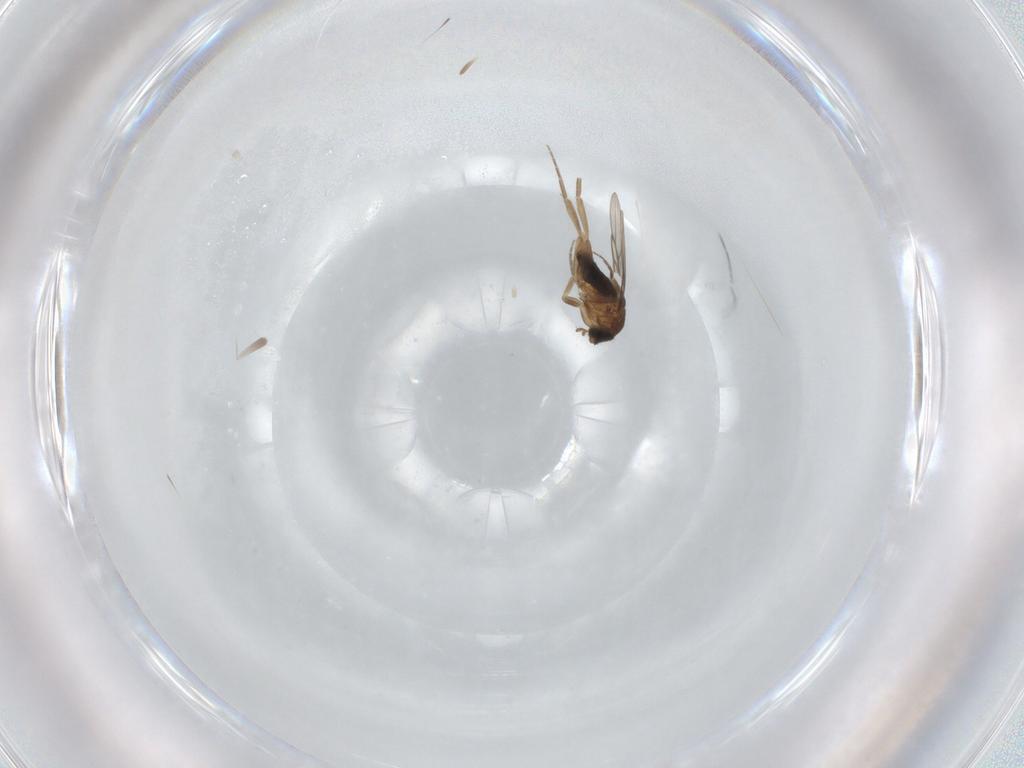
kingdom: Animalia
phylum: Arthropoda
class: Insecta
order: Diptera
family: Phoridae
